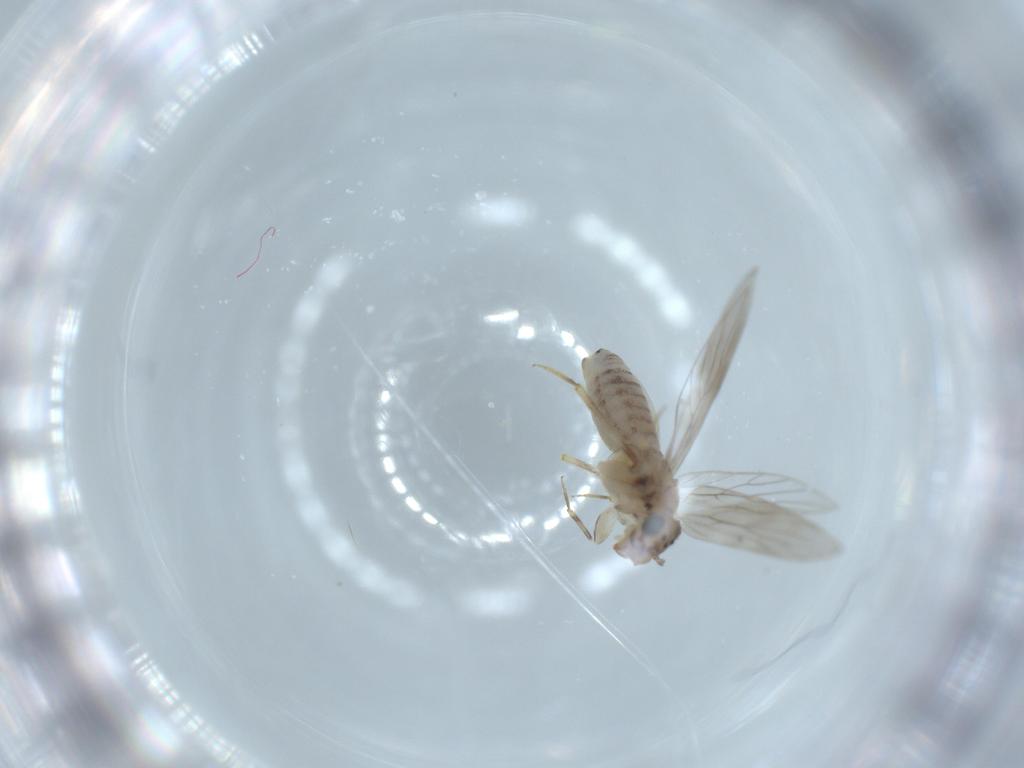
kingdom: Animalia
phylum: Arthropoda
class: Insecta
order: Psocodea
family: Lepidopsocidae
